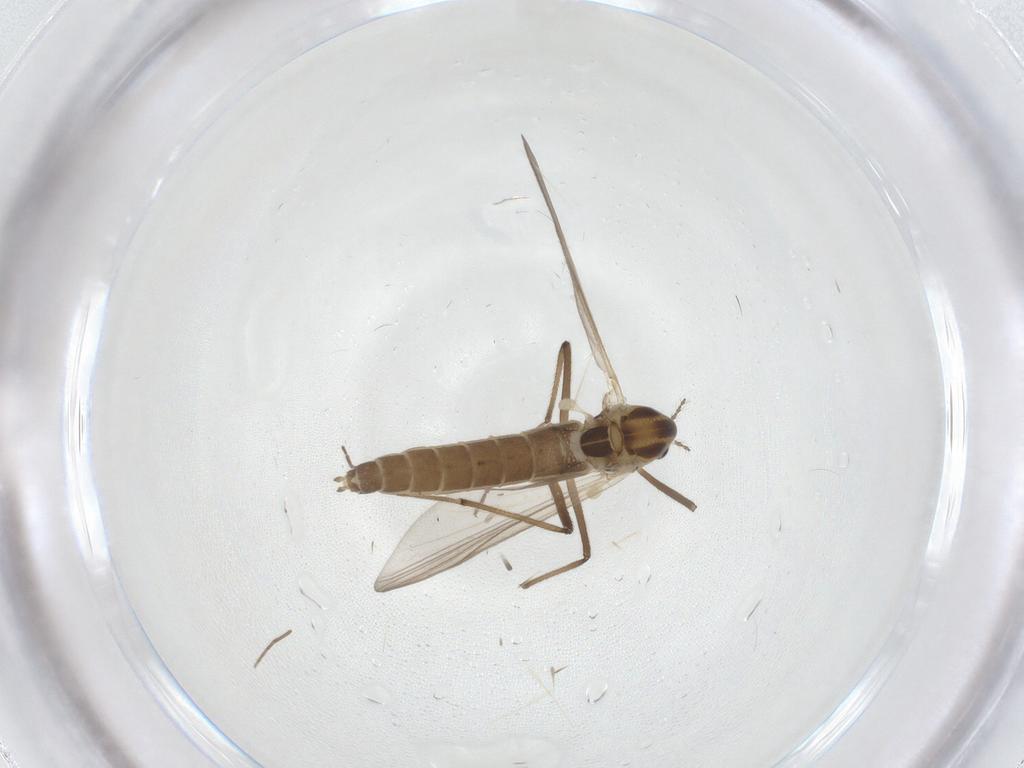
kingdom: Animalia
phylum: Arthropoda
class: Insecta
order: Diptera
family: Chironomidae
